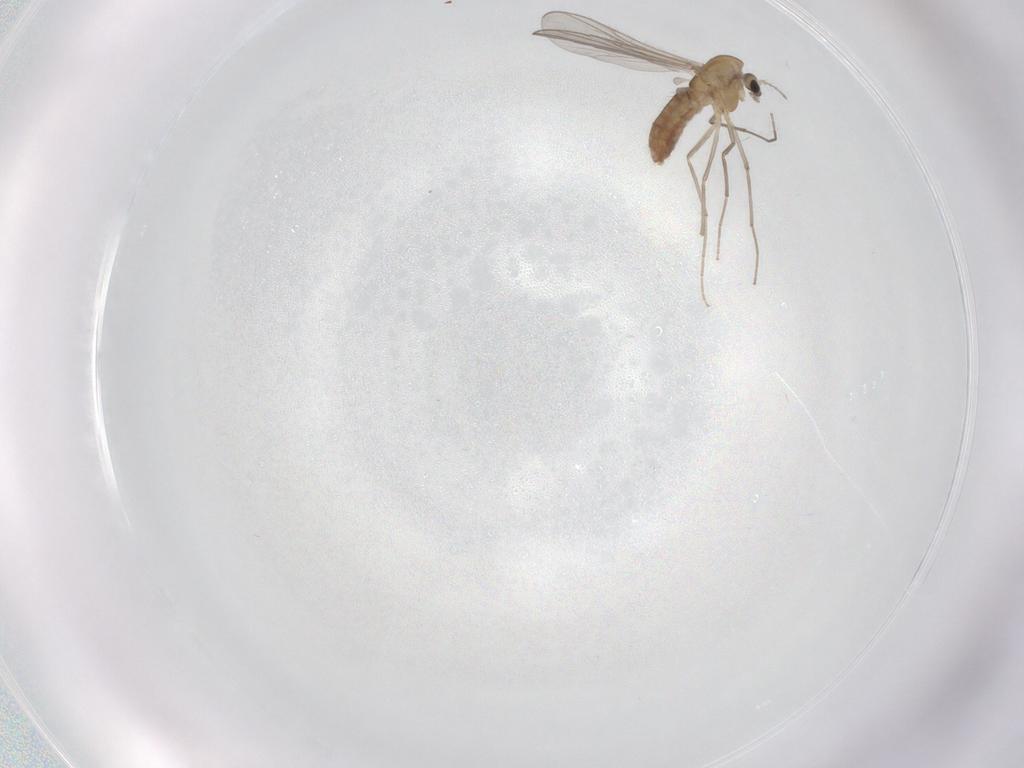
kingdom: Animalia
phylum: Arthropoda
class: Insecta
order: Diptera
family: Chironomidae
